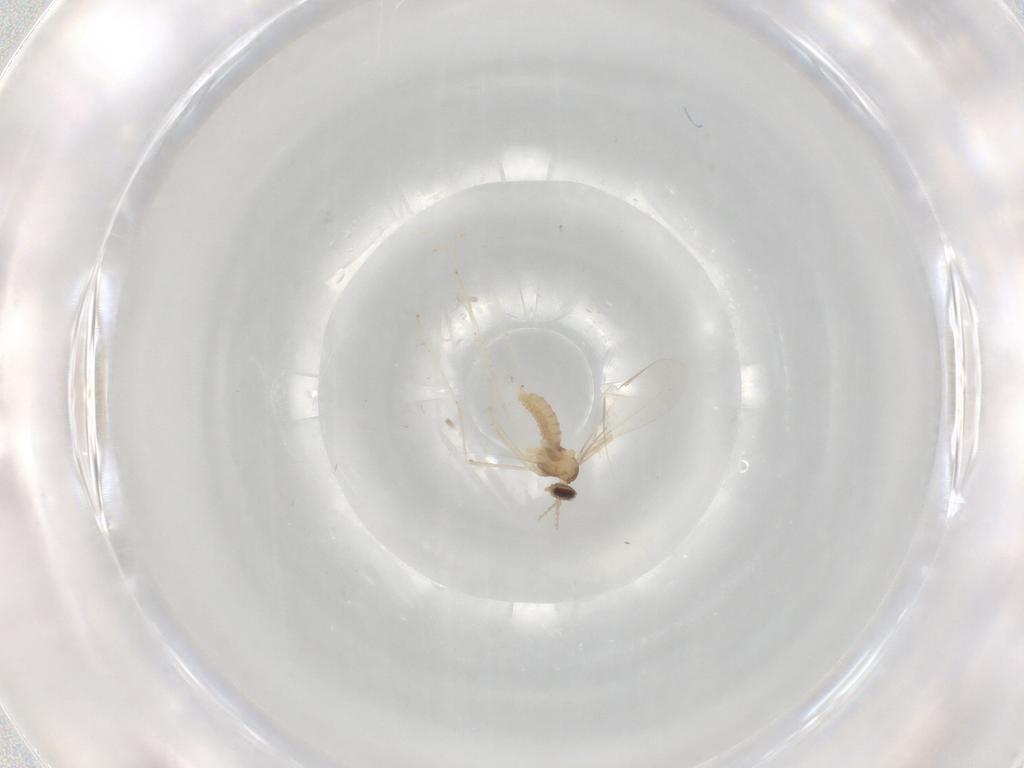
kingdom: Animalia
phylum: Arthropoda
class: Insecta
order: Diptera
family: Cecidomyiidae
